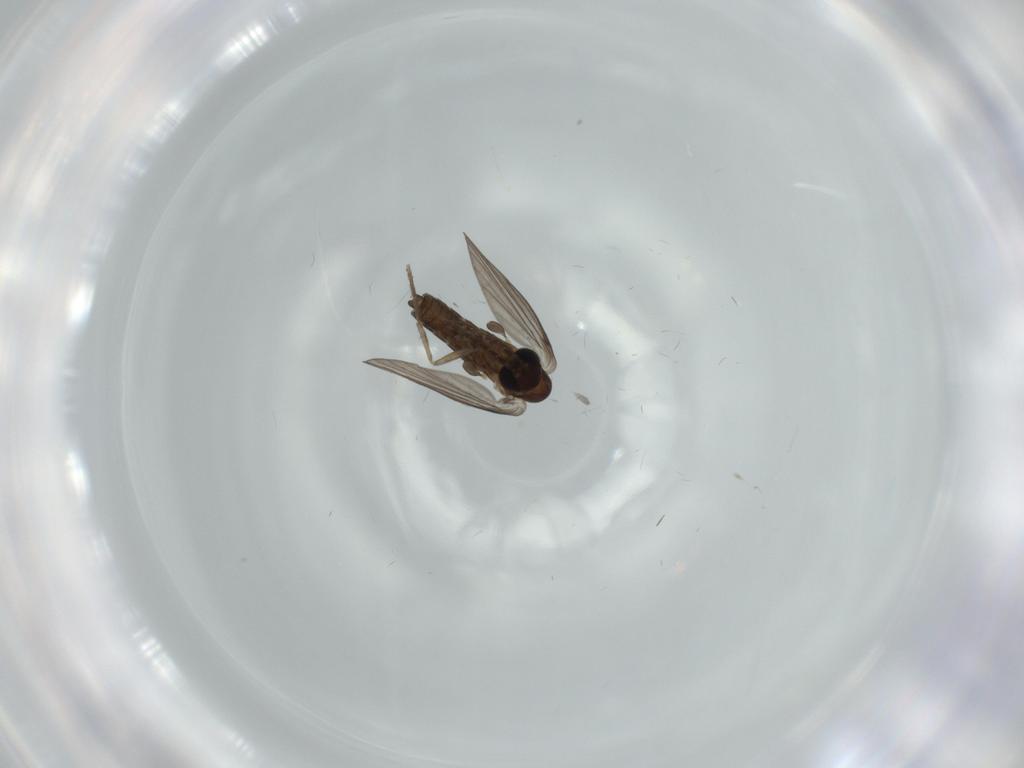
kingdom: Animalia
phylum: Arthropoda
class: Insecta
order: Diptera
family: Psychodidae
